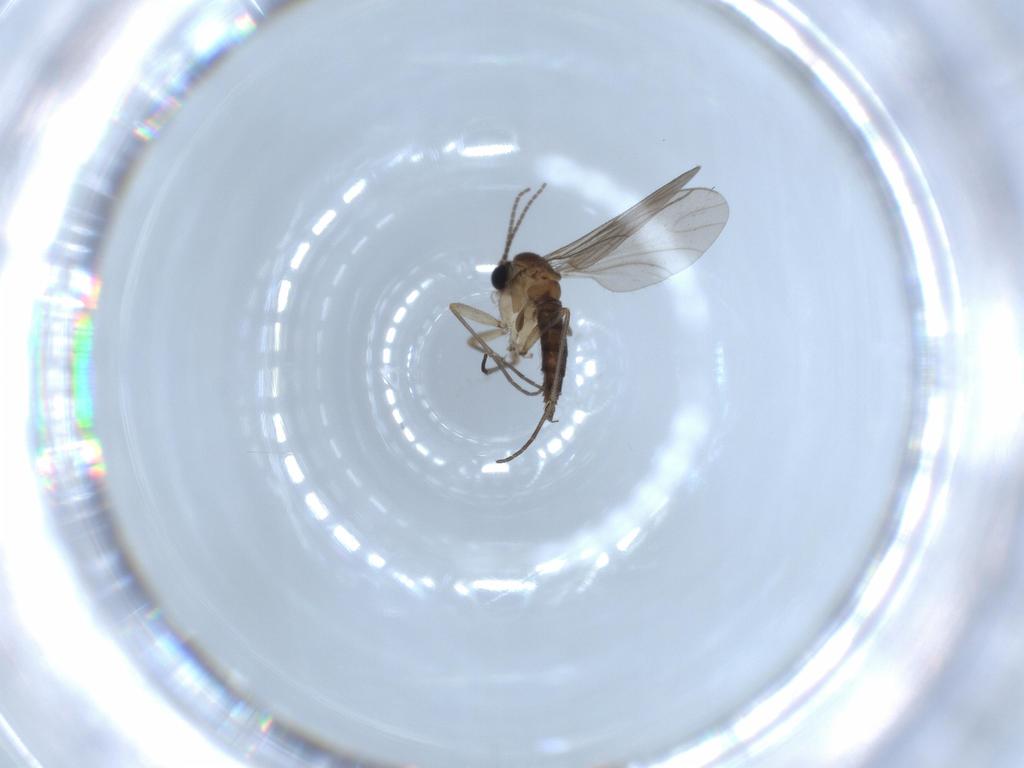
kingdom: Animalia
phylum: Arthropoda
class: Insecta
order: Diptera
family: Sciaridae
